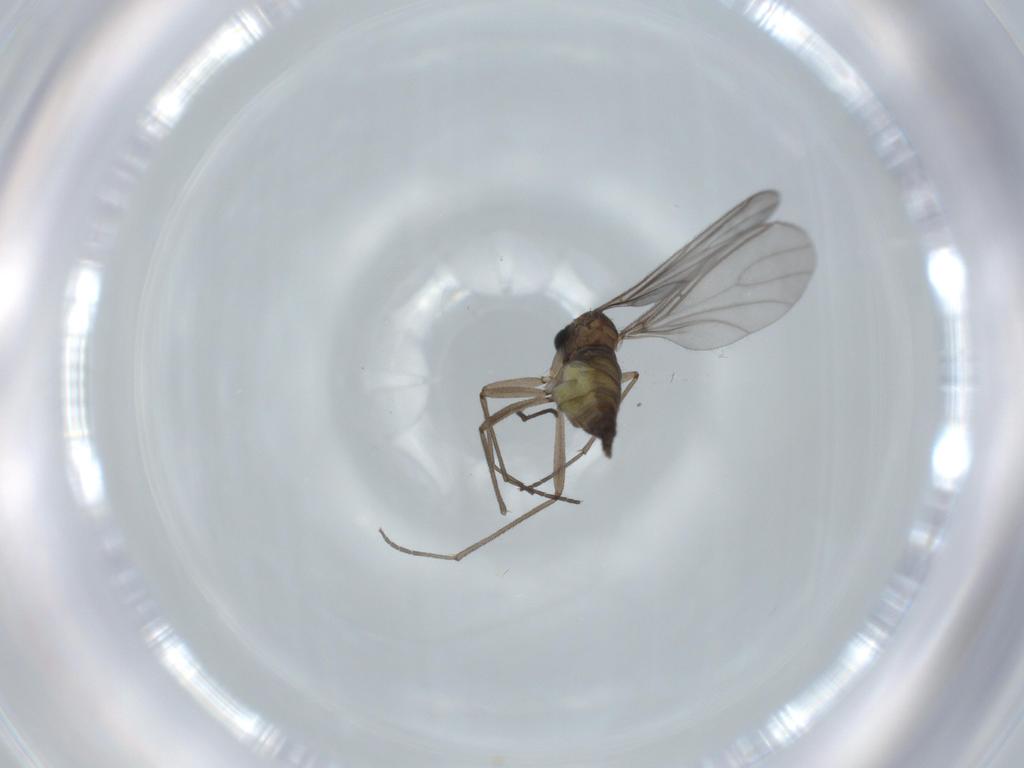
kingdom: Animalia
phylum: Arthropoda
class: Insecta
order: Diptera
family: Sciaridae
